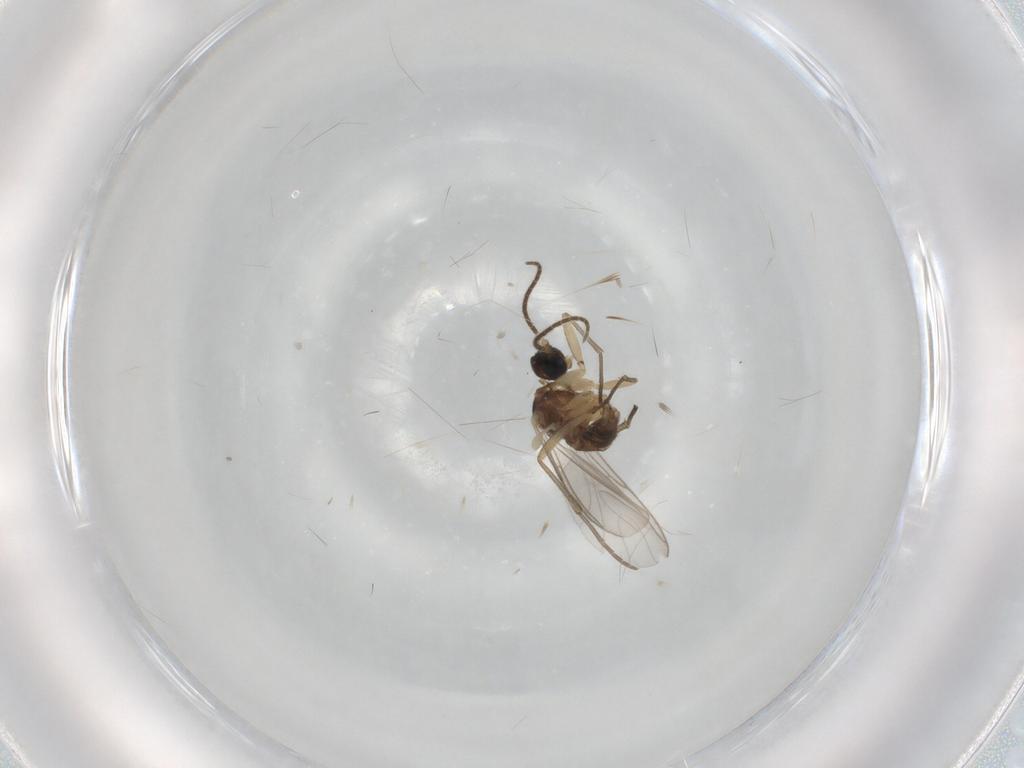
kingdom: Animalia
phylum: Arthropoda
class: Insecta
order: Diptera
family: Sciaridae
